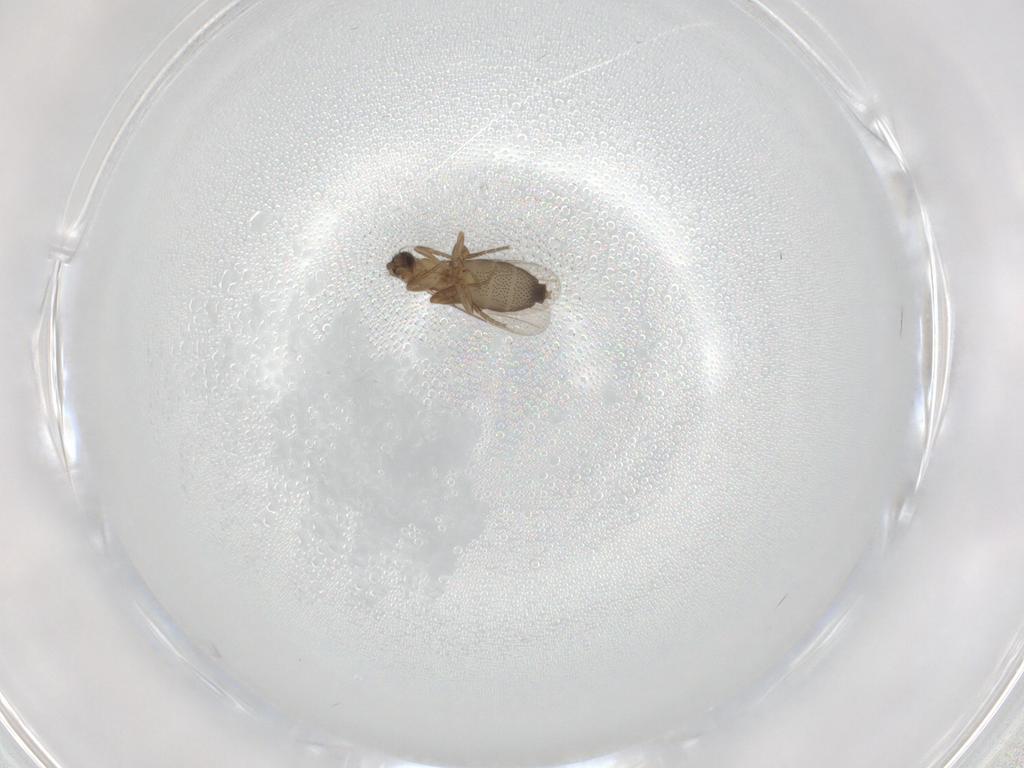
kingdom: Animalia
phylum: Arthropoda
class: Insecta
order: Diptera
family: Phoridae
